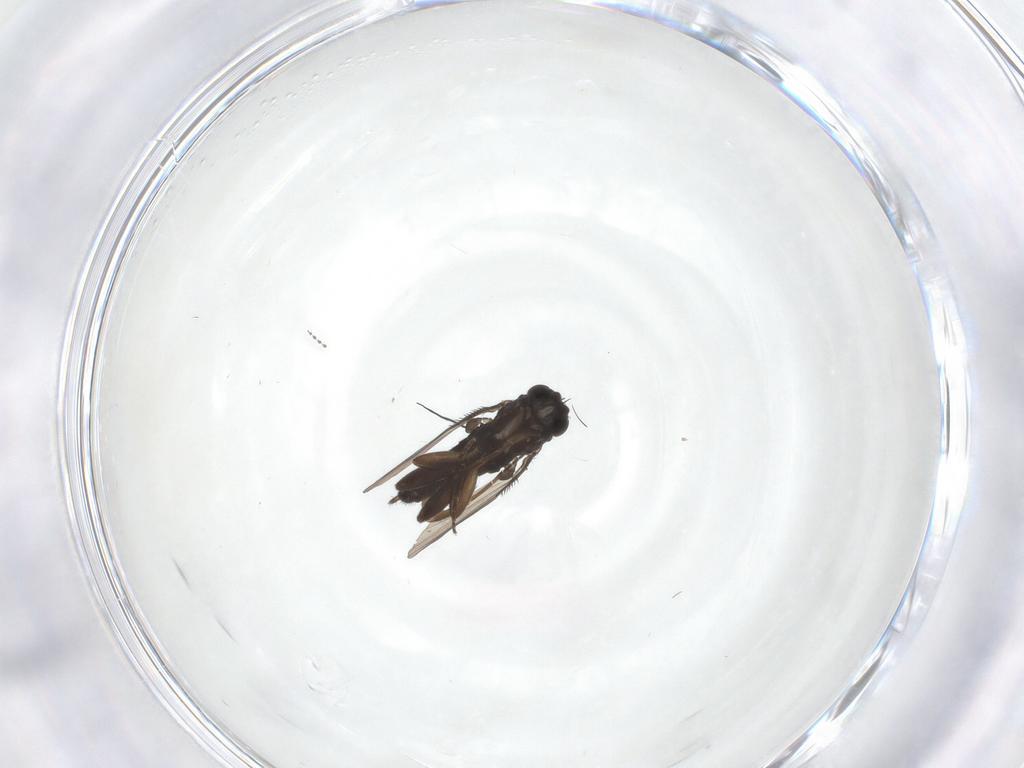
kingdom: Animalia
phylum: Arthropoda
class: Insecta
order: Diptera
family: Phoridae
